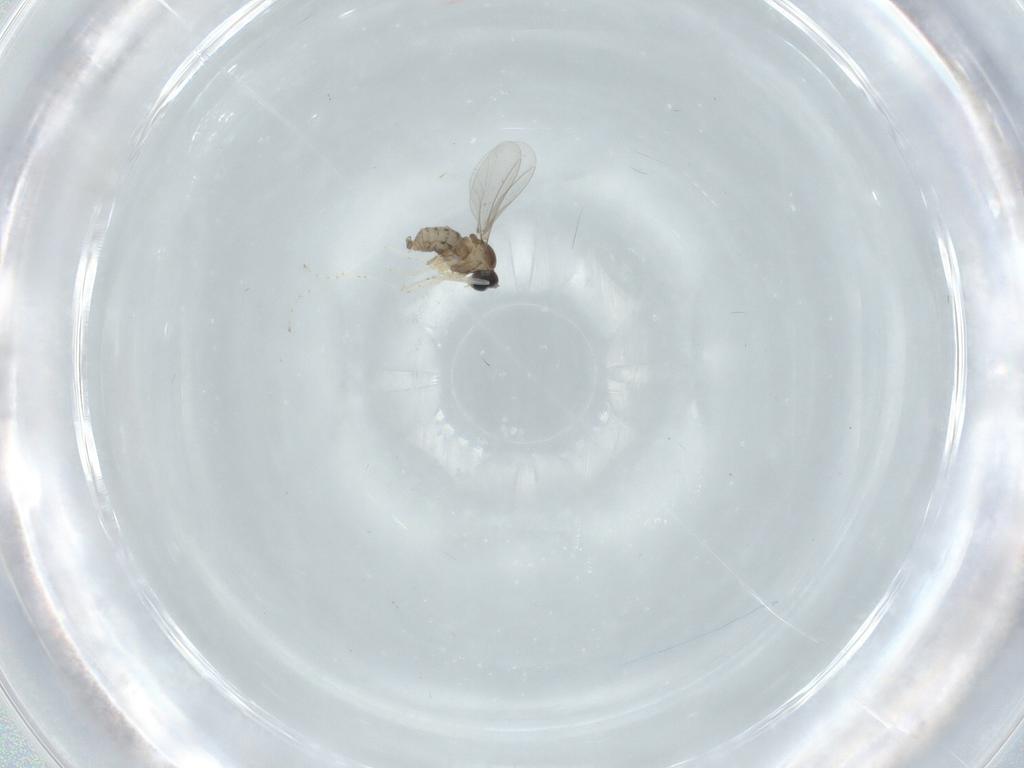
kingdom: Animalia
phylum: Arthropoda
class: Insecta
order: Diptera
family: Cecidomyiidae
